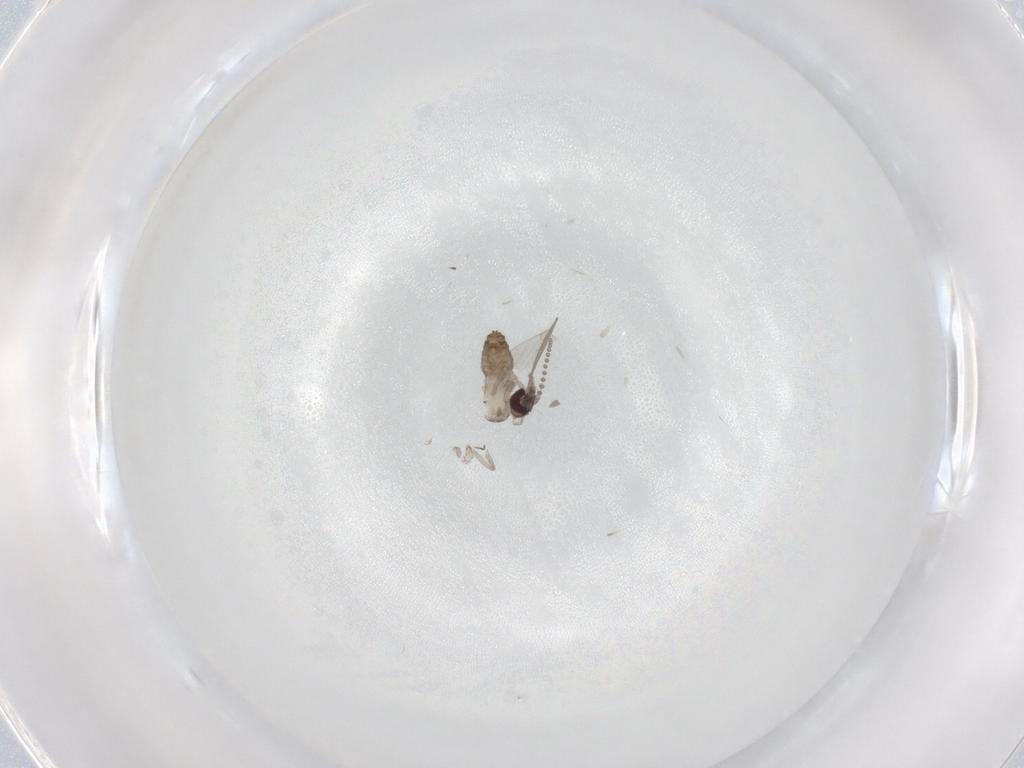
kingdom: Animalia
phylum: Arthropoda
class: Insecta
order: Diptera
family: Psychodidae
